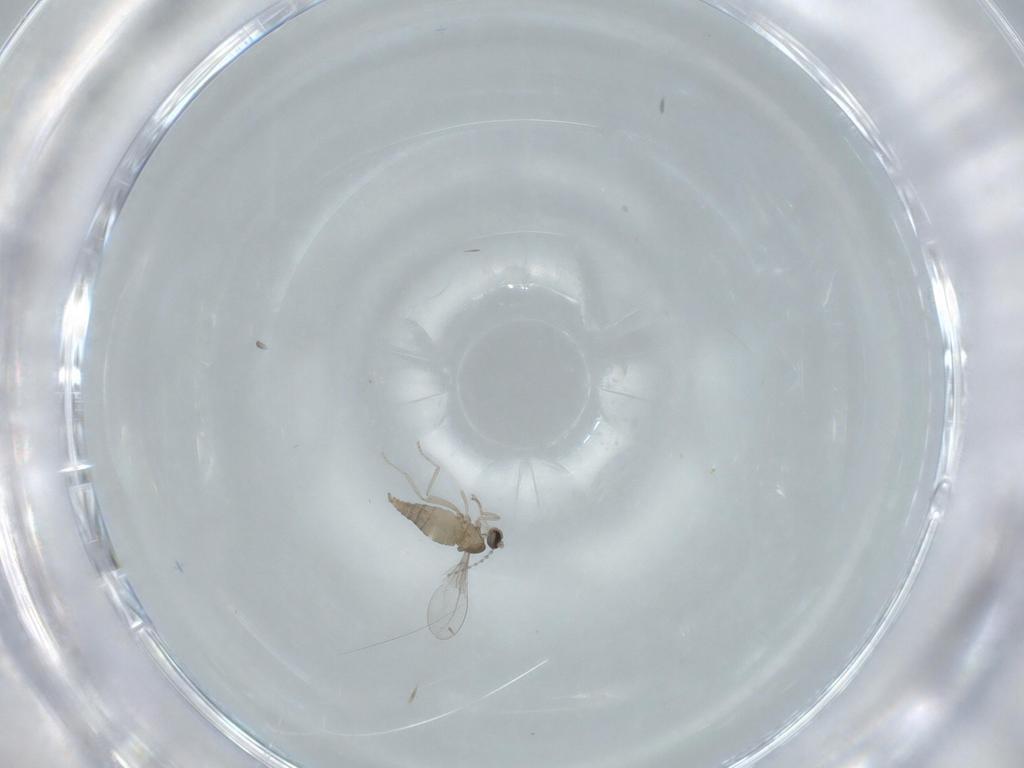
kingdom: Animalia
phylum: Arthropoda
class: Insecta
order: Diptera
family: Cecidomyiidae
